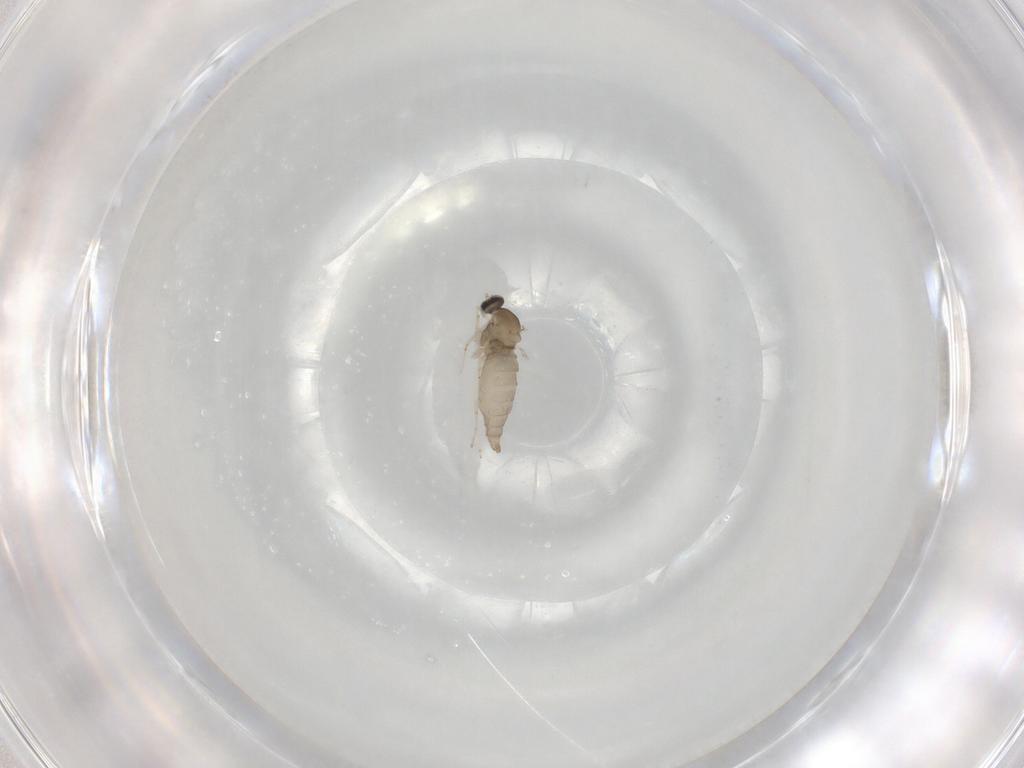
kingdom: Animalia
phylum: Arthropoda
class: Insecta
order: Diptera
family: Cecidomyiidae
